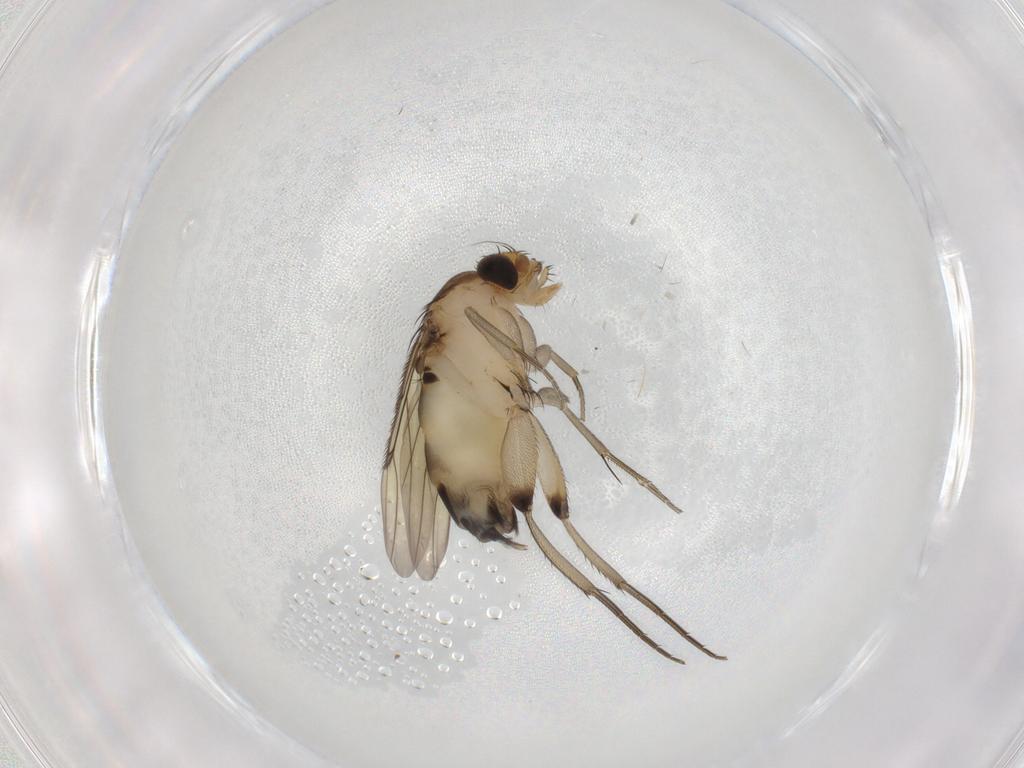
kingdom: Animalia
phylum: Arthropoda
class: Insecta
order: Diptera
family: Phoridae
